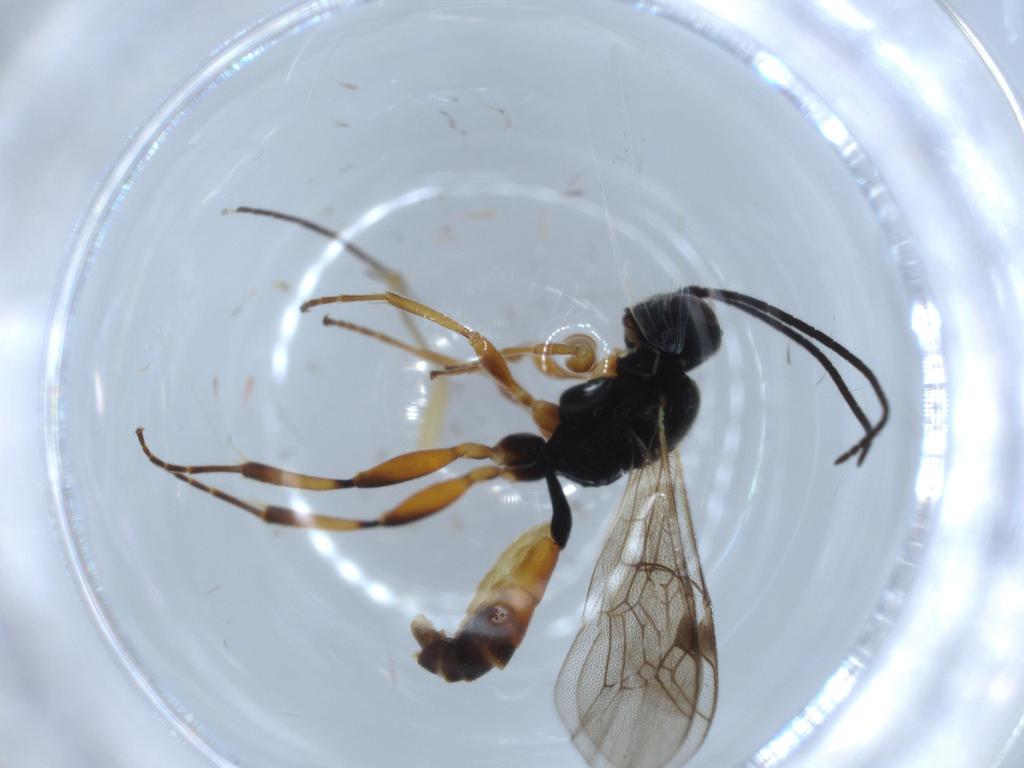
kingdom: Animalia
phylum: Arthropoda
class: Insecta
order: Hymenoptera
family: Ichneumonidae
